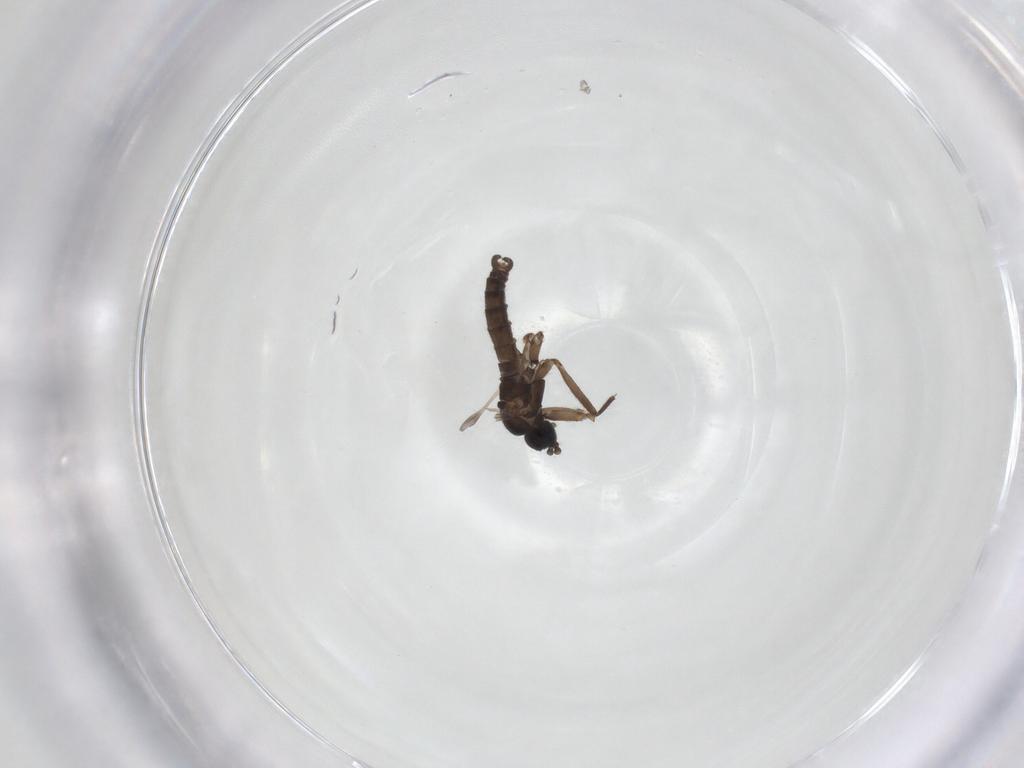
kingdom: Animalia
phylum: Arthropoda
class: Insecta
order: Diptera
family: Sciaridae
